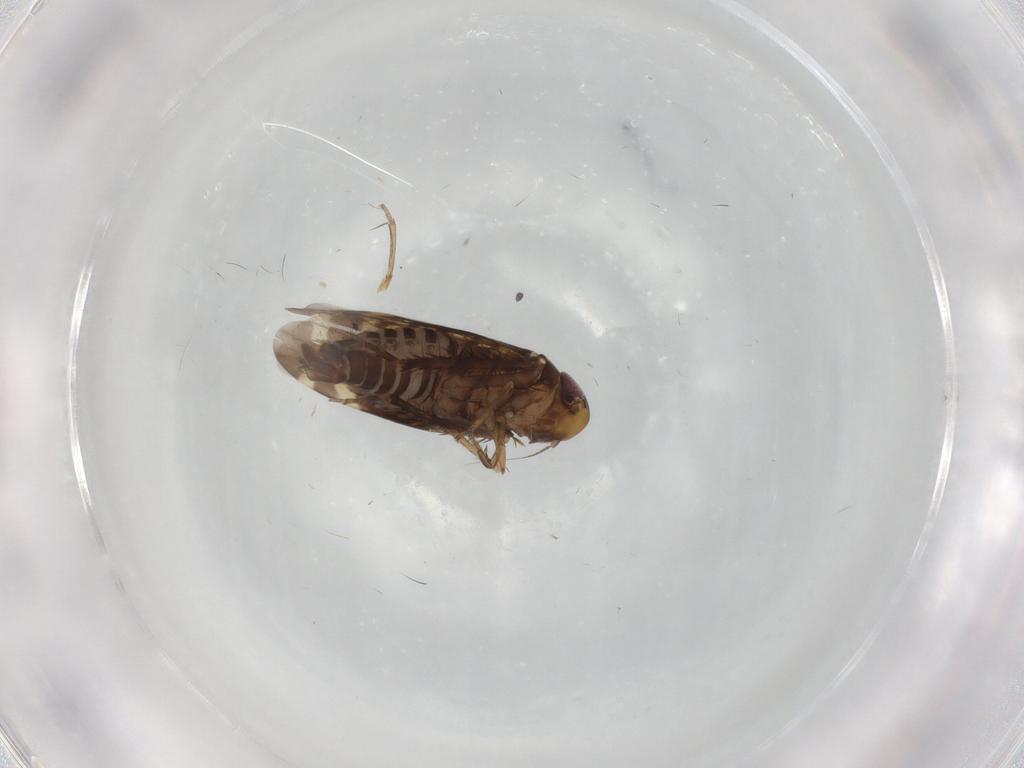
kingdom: Animalia
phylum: Arthropoda
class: Insecta
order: Hemiptera
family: Cicadellidae
